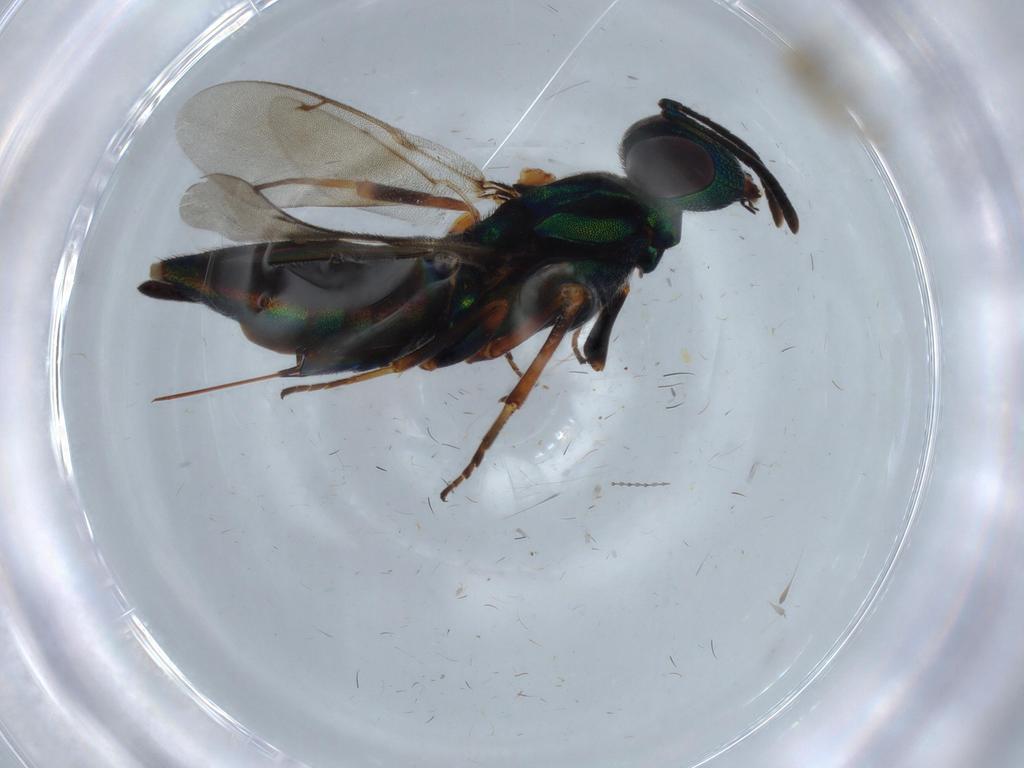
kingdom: Animalia
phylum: Arthropoda
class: Insecta
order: Hymenoptera
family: Eupelmidae
